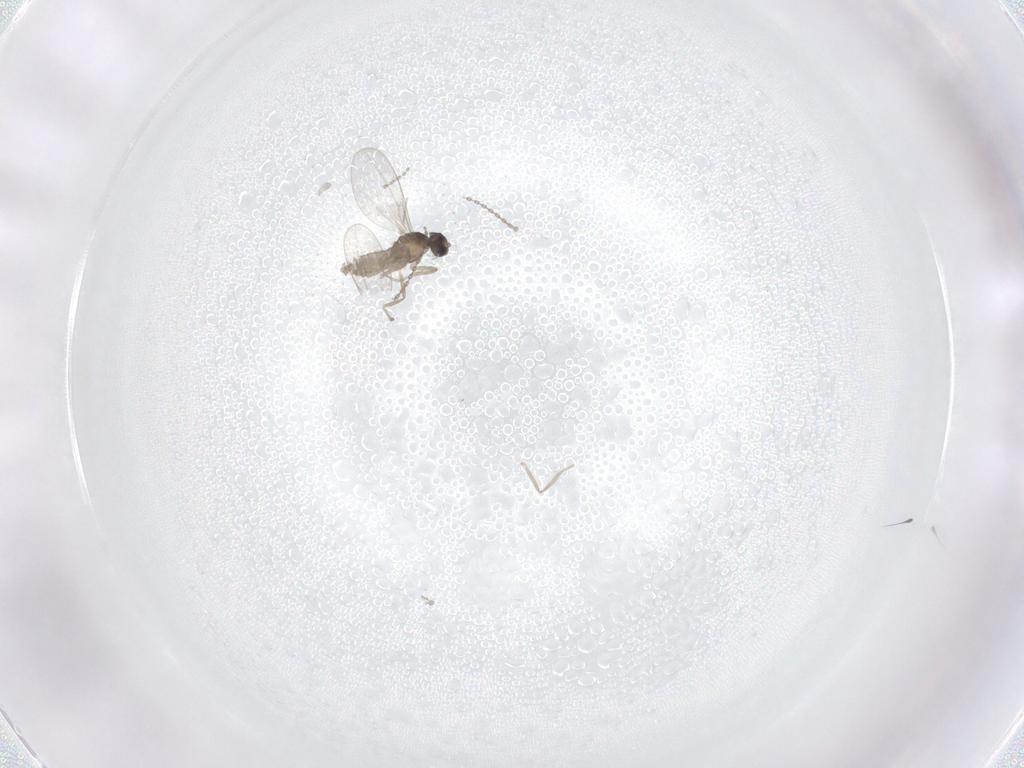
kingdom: Animalia
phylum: Arthropoda
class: Insecta
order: Diptera
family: Cecidomyiidae
